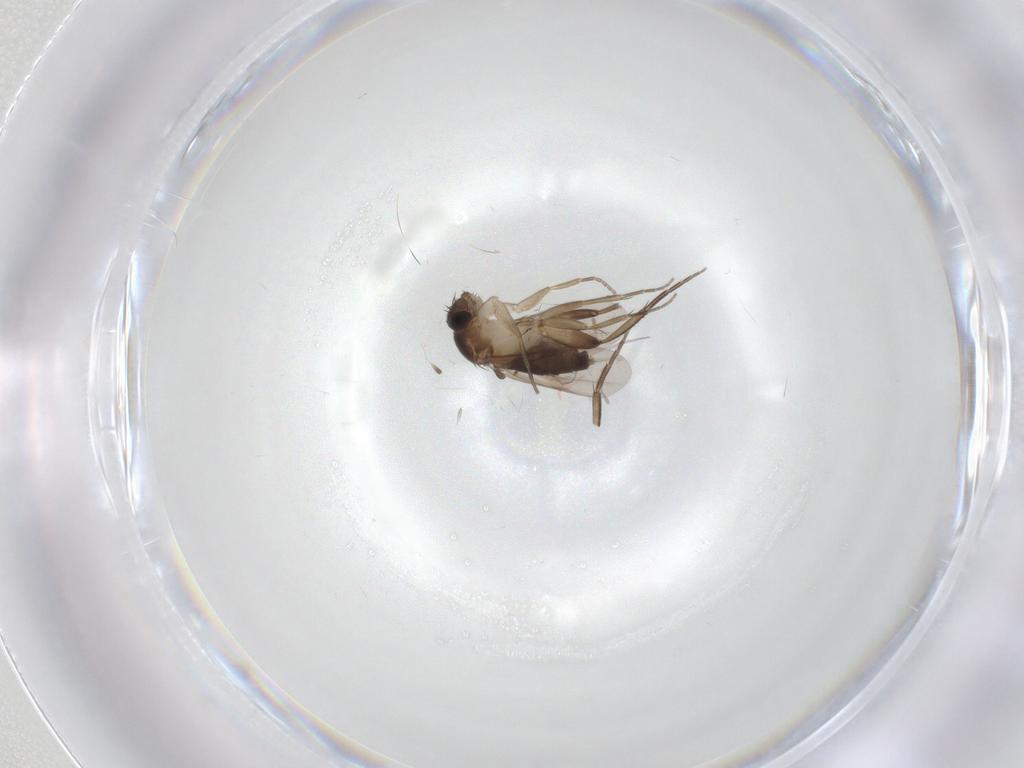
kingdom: Animalia
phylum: Arthropoda
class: Insecta
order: Diptera
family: Phoridae
